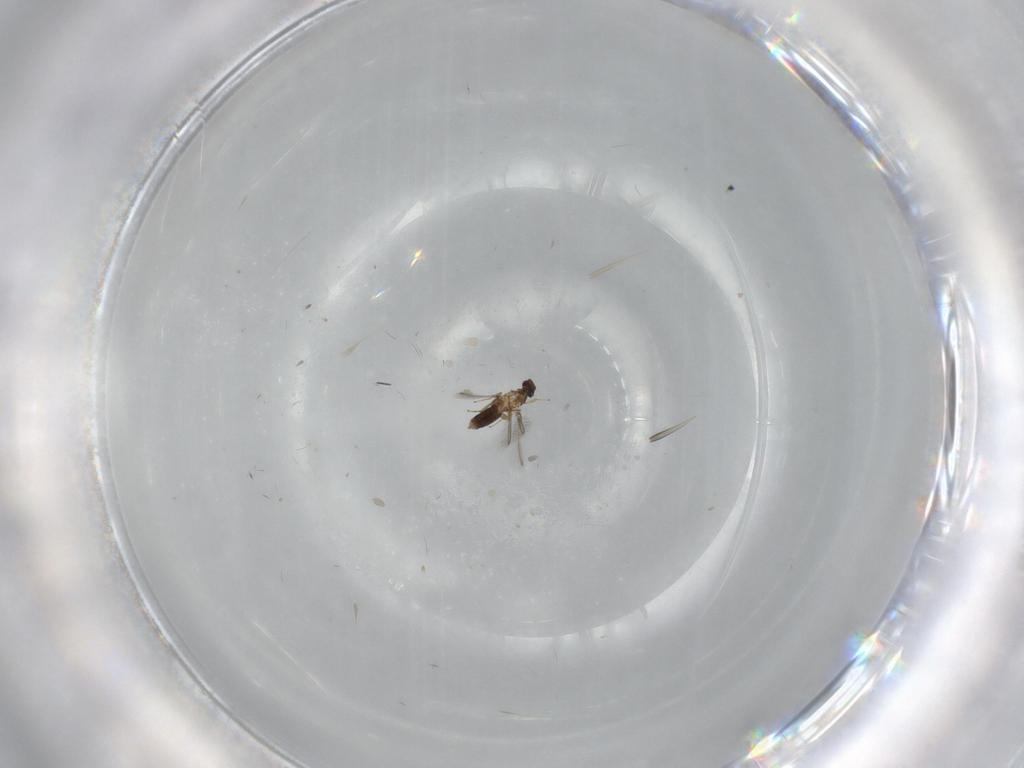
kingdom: Animalia
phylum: Arthropoda
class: Insecta
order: Hymenoptera
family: Mymaridae
